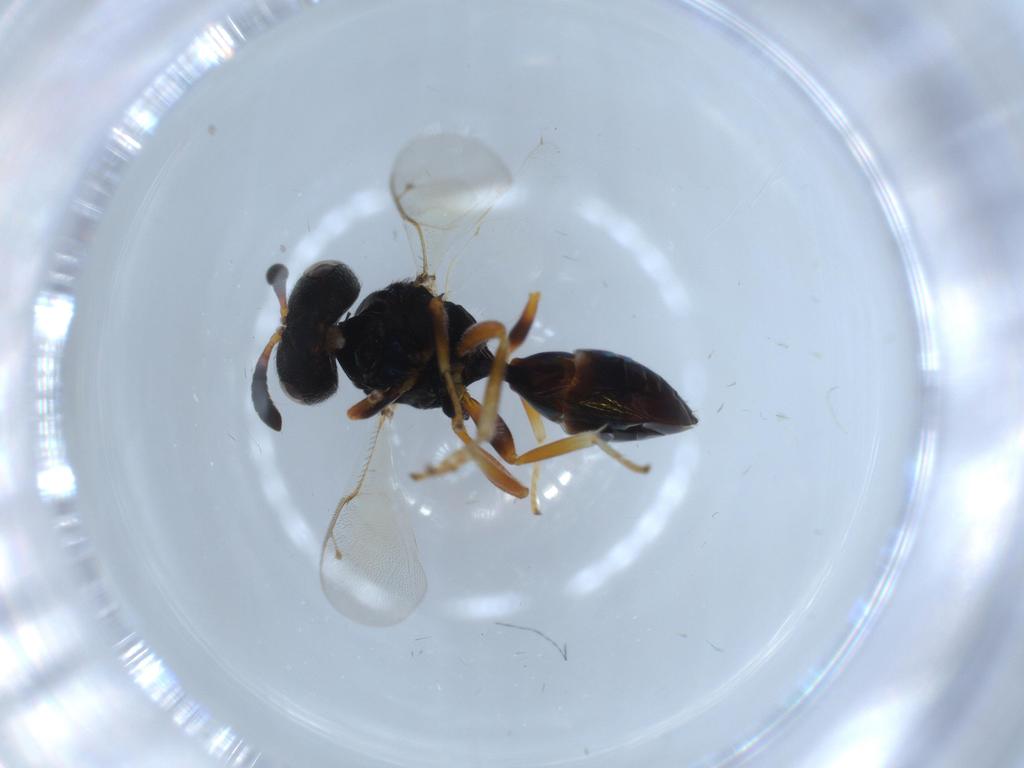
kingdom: Animalia
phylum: Arthropoda
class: Insecta
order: Hymenoptera
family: Agaonidae
